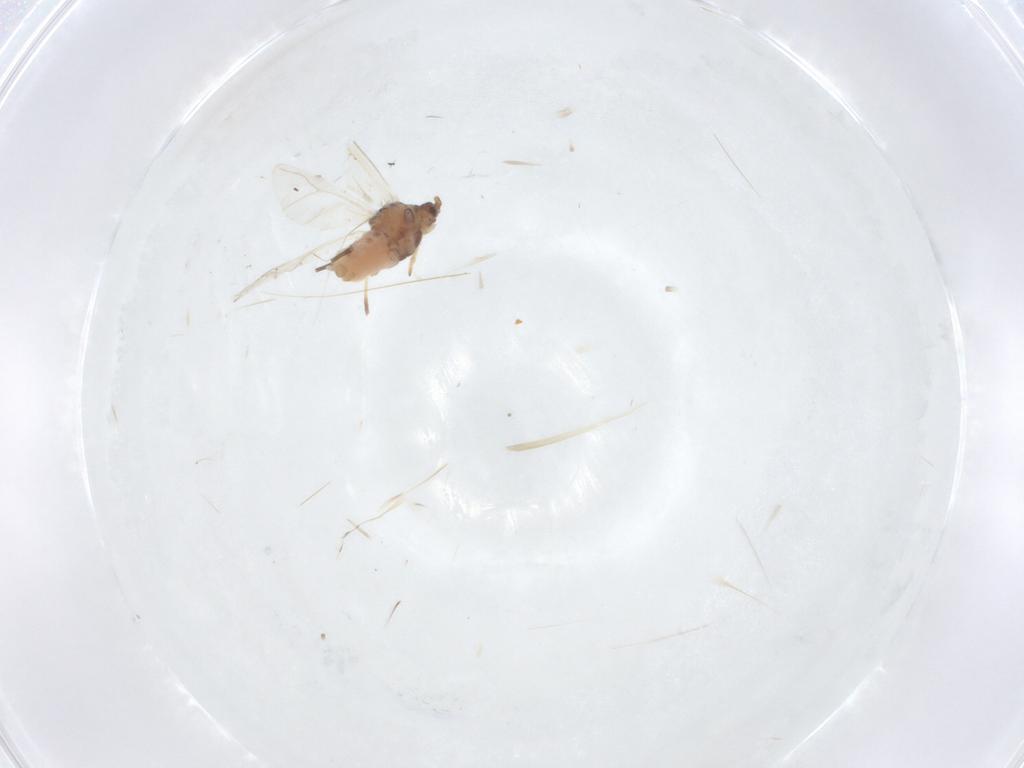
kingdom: Animalia
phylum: Arthropoda
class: Insecta
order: Hemiptera
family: Aphididae
